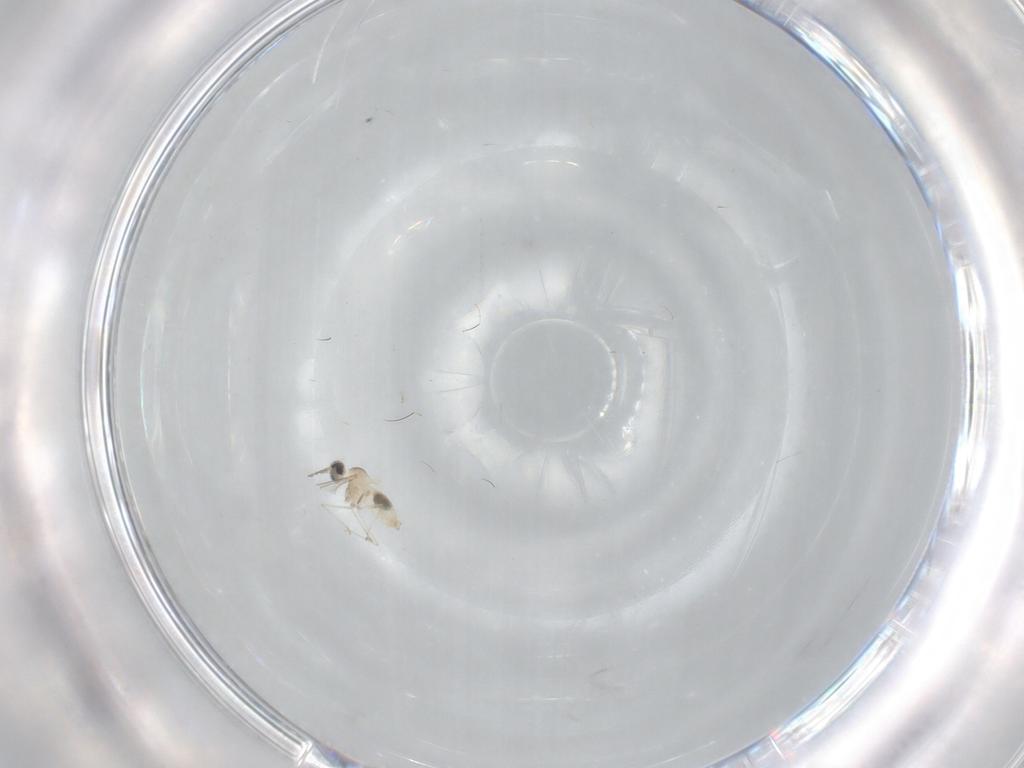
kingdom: Animalia
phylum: Arthropoda
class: Insecta
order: Diptera
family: Cecidomyiidae
